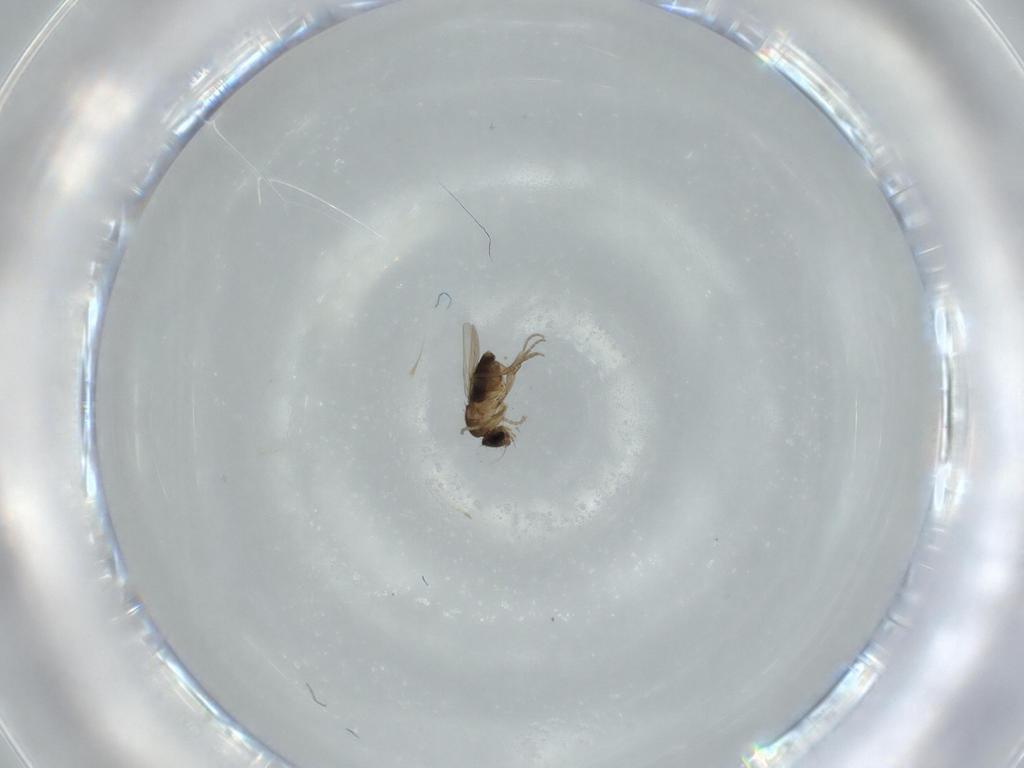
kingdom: Animalia
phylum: Arthropoda
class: Insecta
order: Diptera
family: Phoridae
